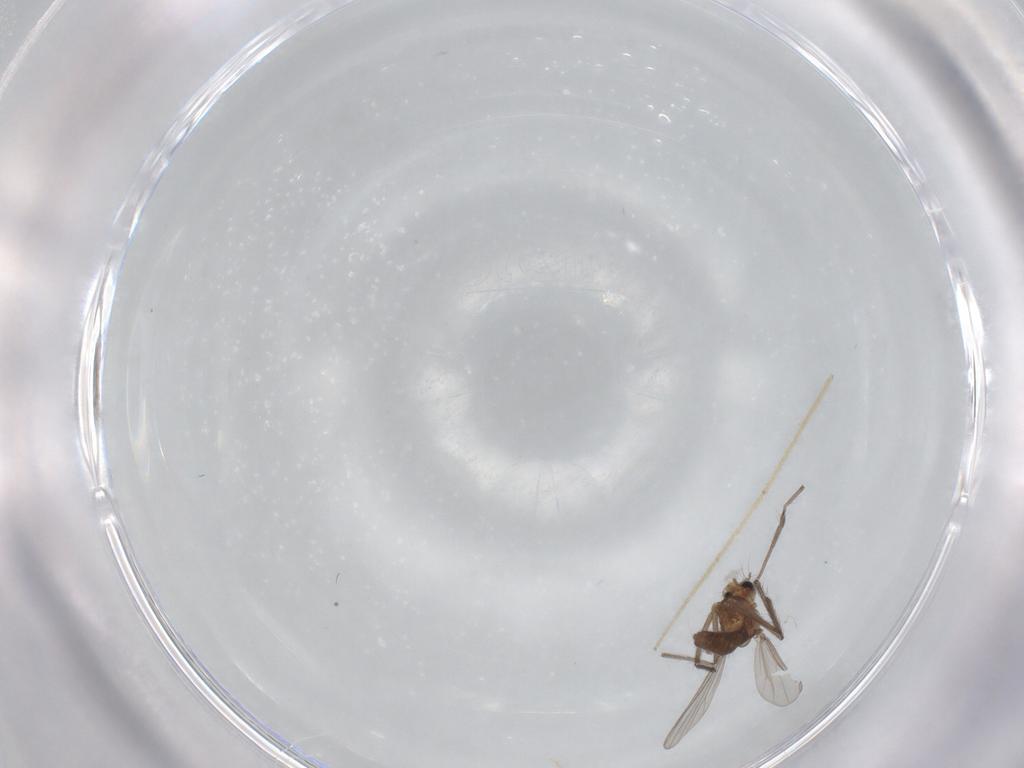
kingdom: Animalia
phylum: Arthropoda
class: Insecta
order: Diptera
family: Chironomidae
